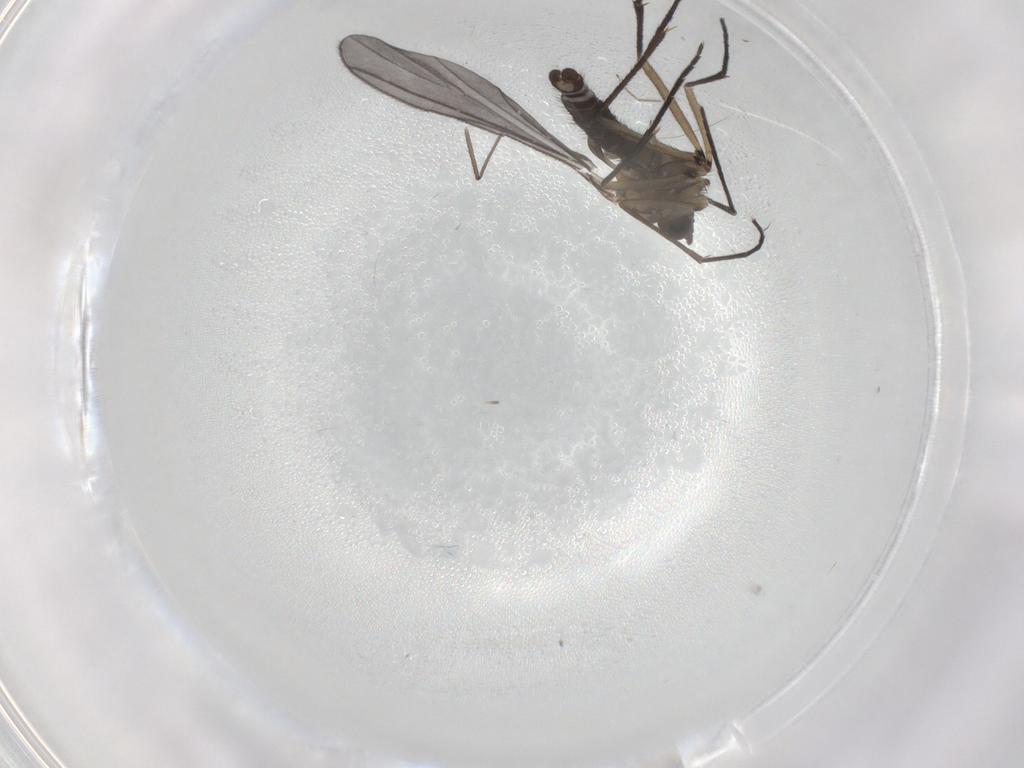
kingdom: Animalia
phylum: Arthropoda
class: Insecta
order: Diptera
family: Sciaridae
